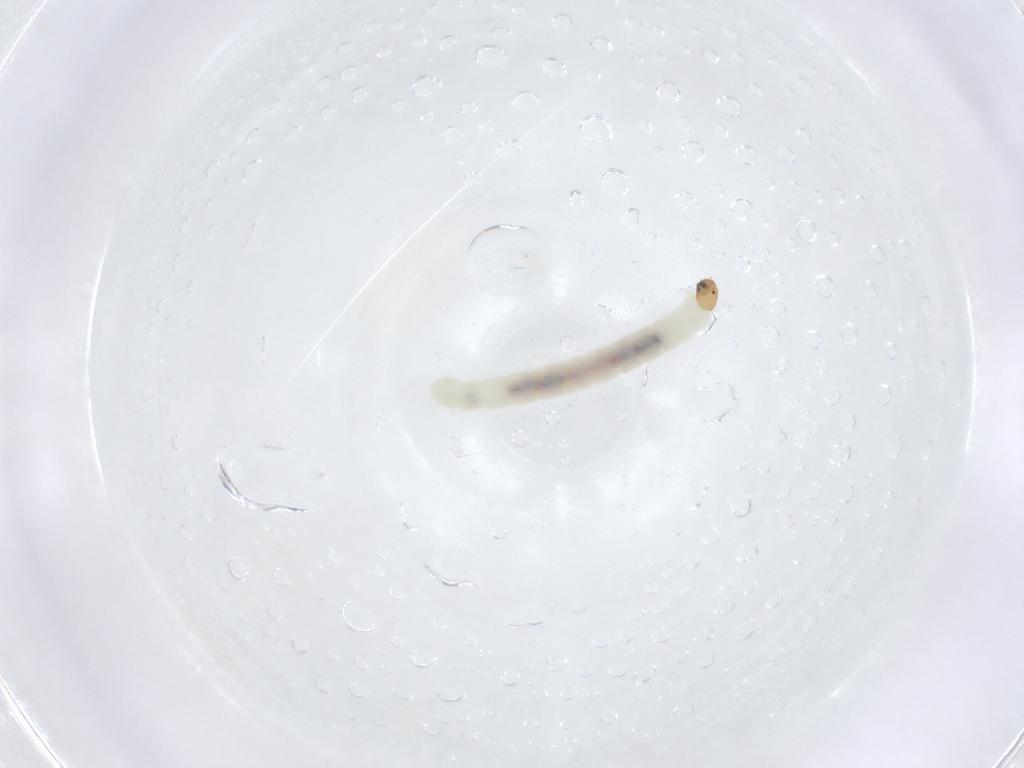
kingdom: Animalia
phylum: Arthropoda
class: Insecta
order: Diptera
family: Chironomidae
